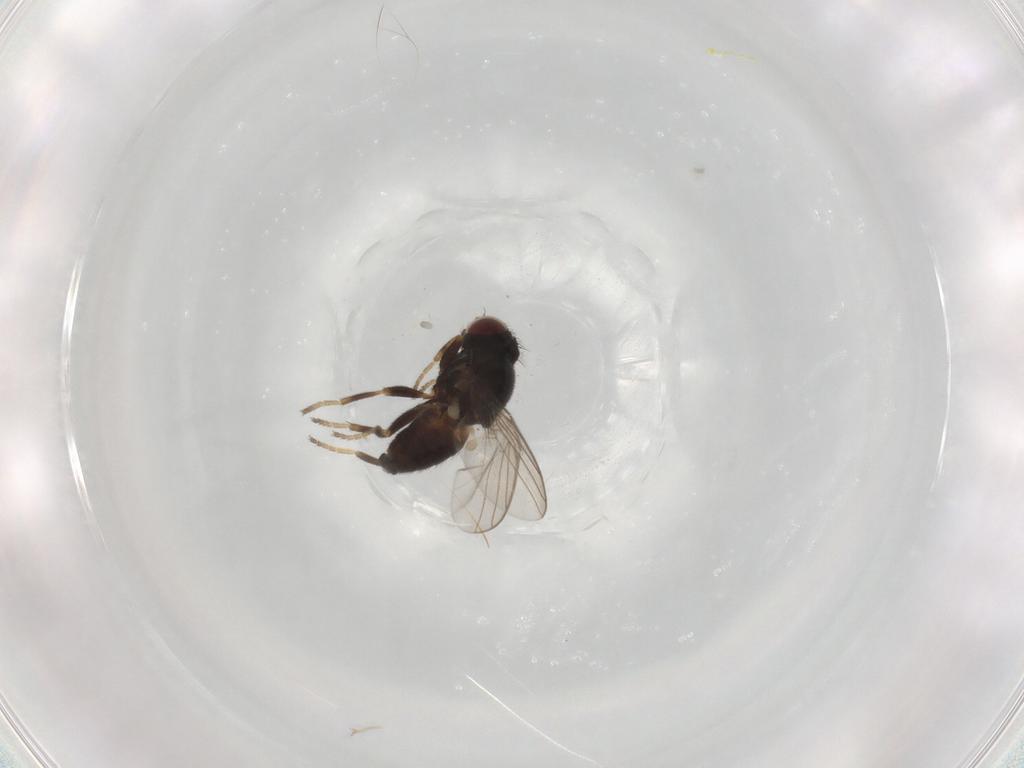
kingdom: Animalia
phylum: Arthropoda
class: Insecta
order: Diptera
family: Chloropidae
